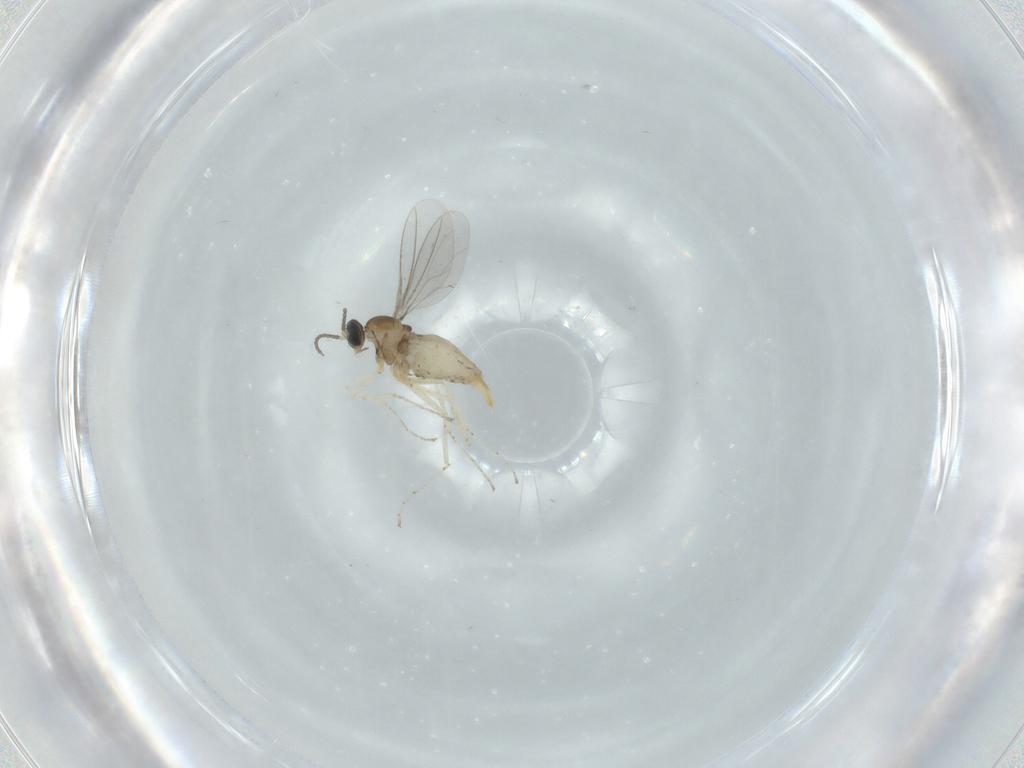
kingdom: Animalia
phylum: Arthropoda
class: Insecta
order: Diptera
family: Cecidomyiidae
